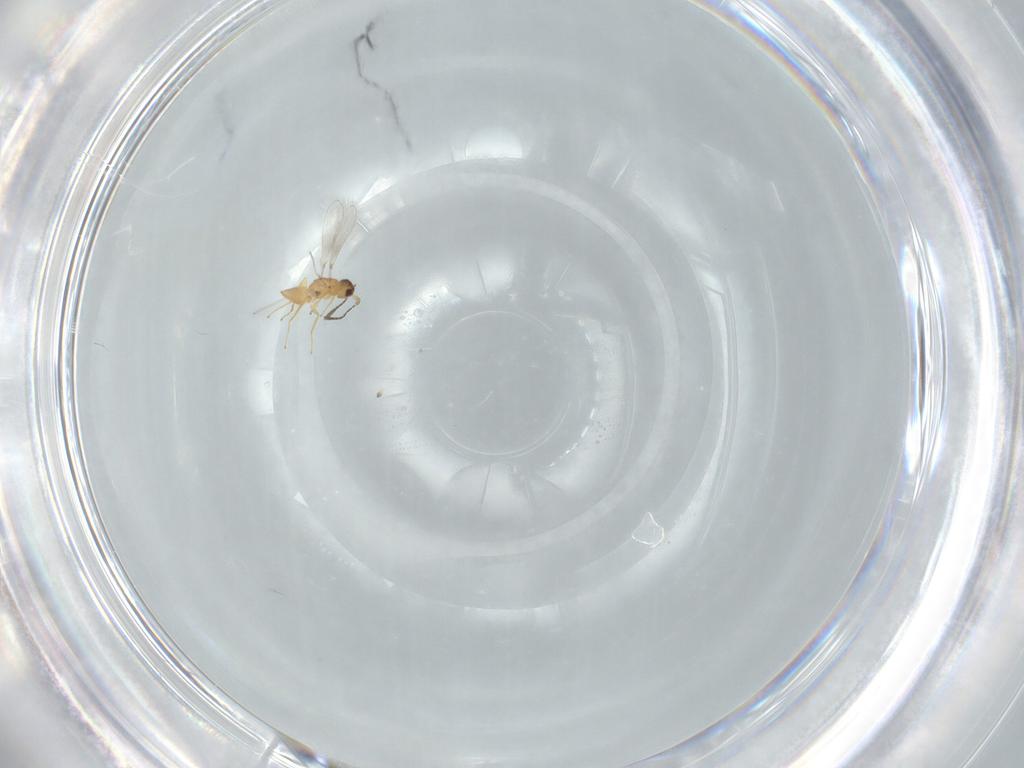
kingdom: Animalia
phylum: Arthropoda
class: Insecta
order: Hymenoptera
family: Mymaridae
